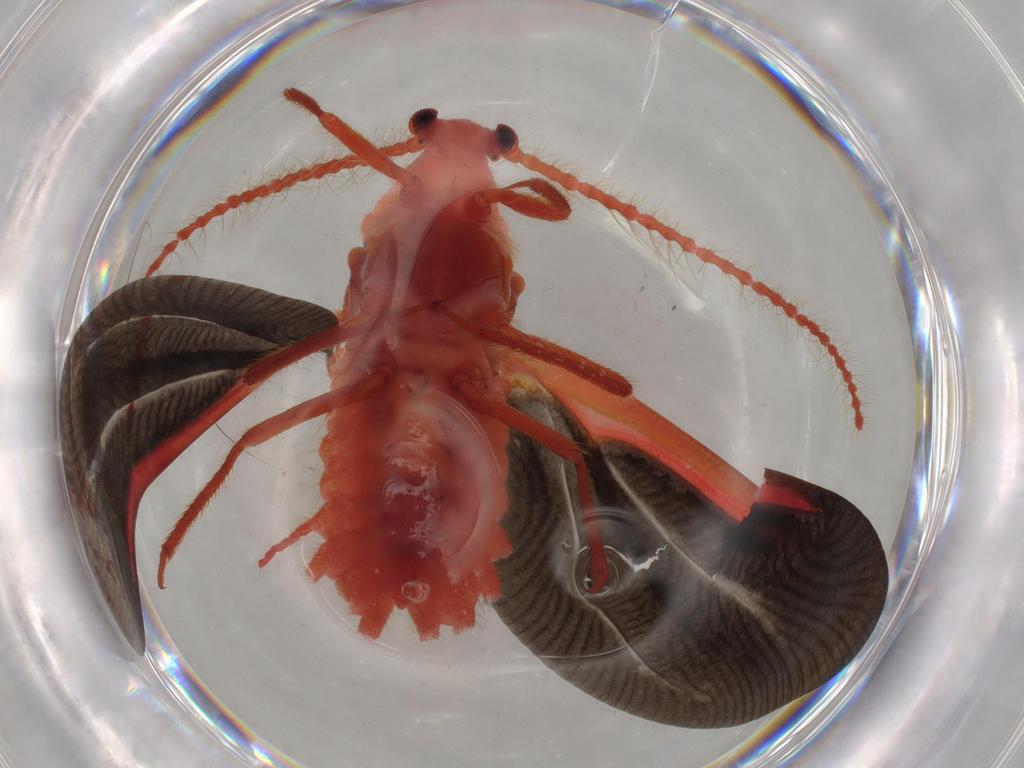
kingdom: Animalia
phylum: Arthropoda
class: Insecta
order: Diptera
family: Cecidomyiidae
